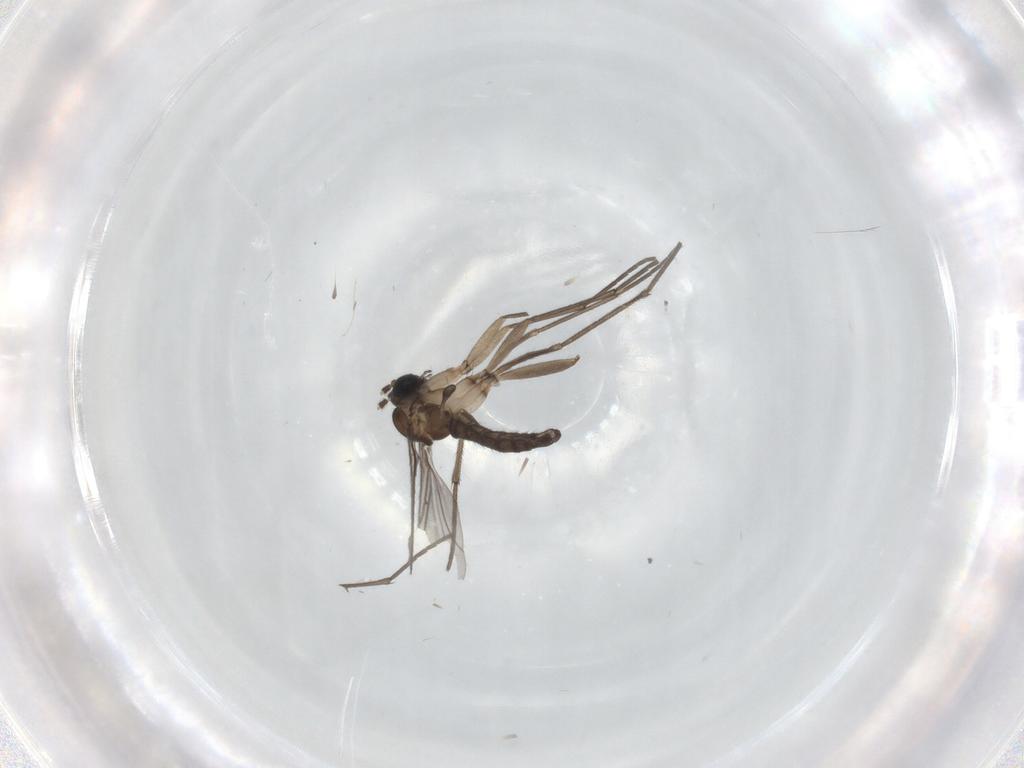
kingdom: Animalia
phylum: Arthropoda
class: Insecta
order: Diptera
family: Sciaridae
